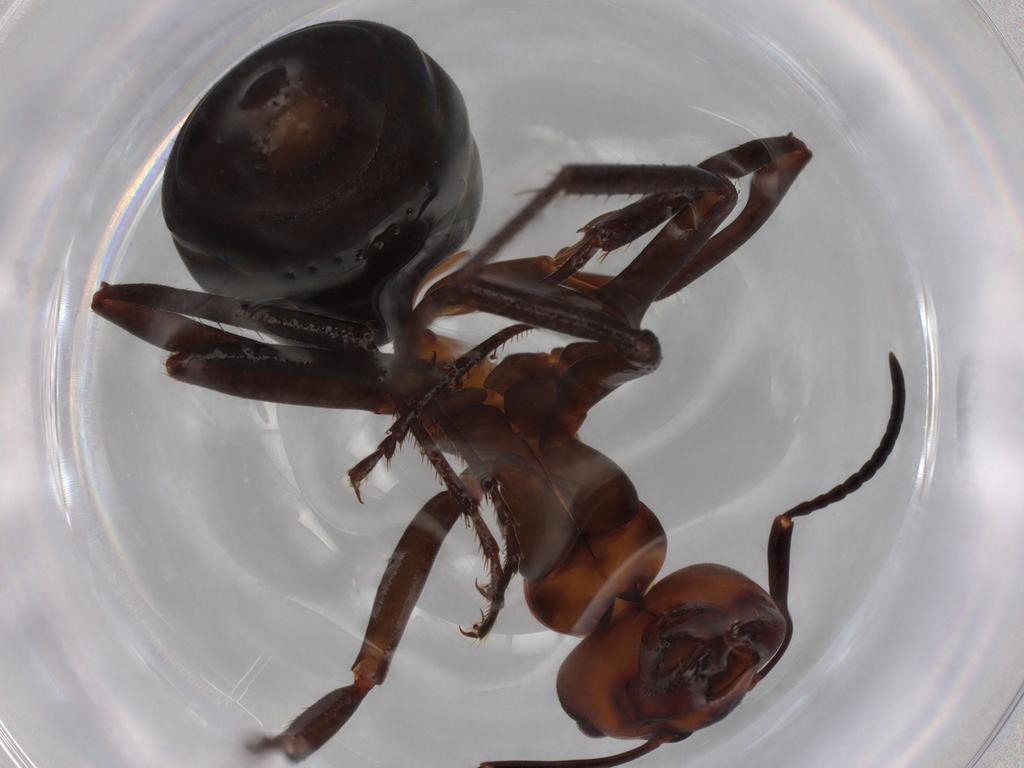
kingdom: Animalia
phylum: Arthropoda
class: Insecta
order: Hymenoptera
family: Formicidae
